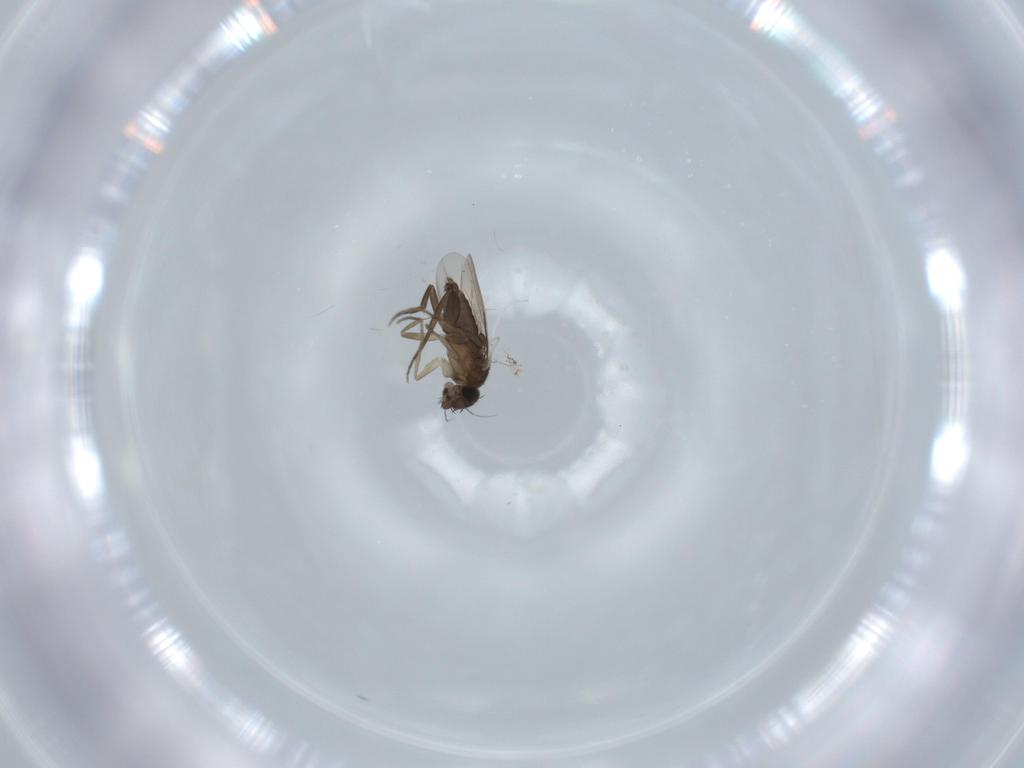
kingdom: Animalia
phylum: Arthropoda
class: Insecta
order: Diptera
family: Phoridae
